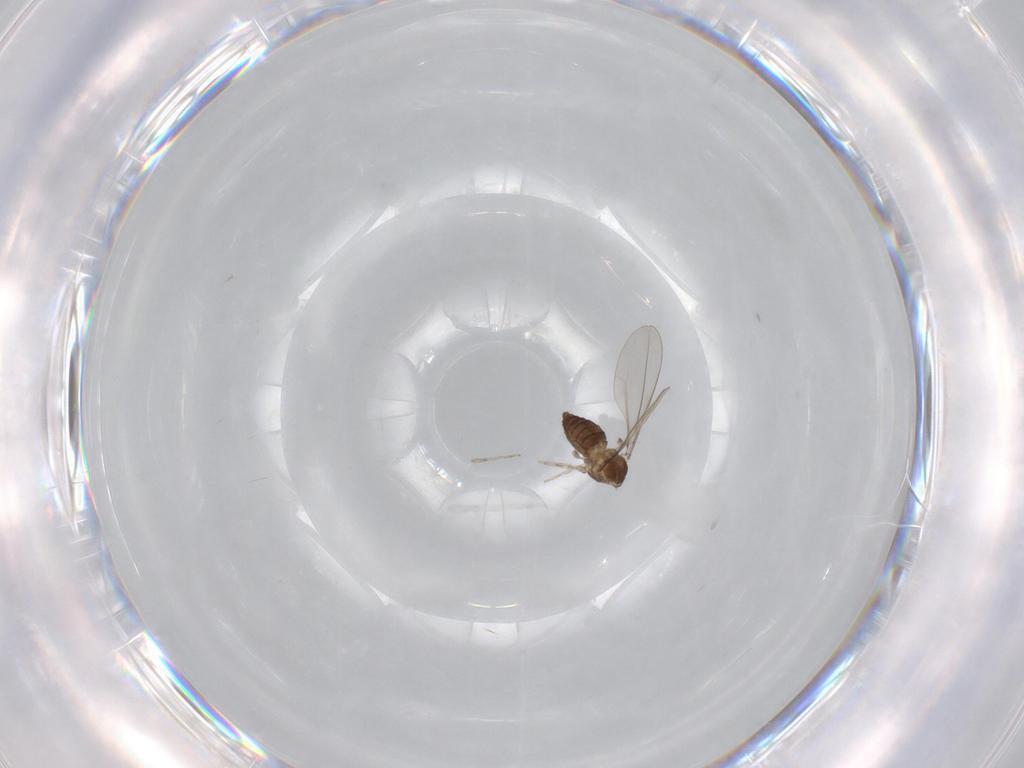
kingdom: Animalia
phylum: Arthropoda
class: Insecta
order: Diptera
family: Cecidomyiidae
